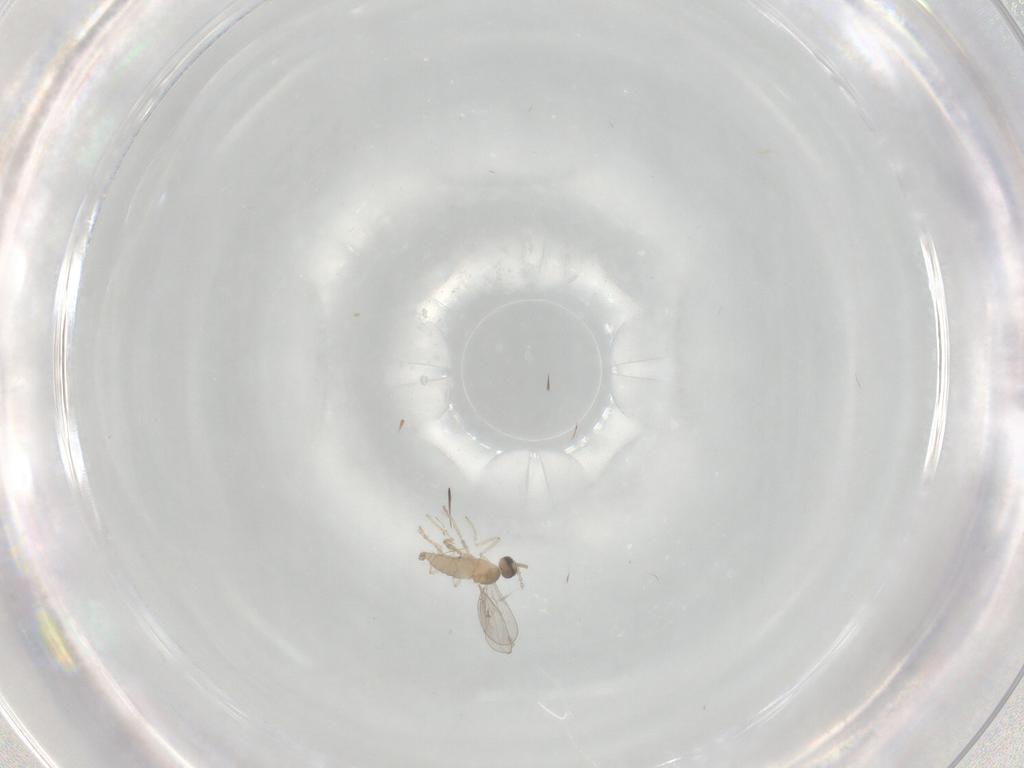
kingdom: Animalia
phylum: Arthropoda
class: Insecta
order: Diptera
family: Cecidomyiidae
